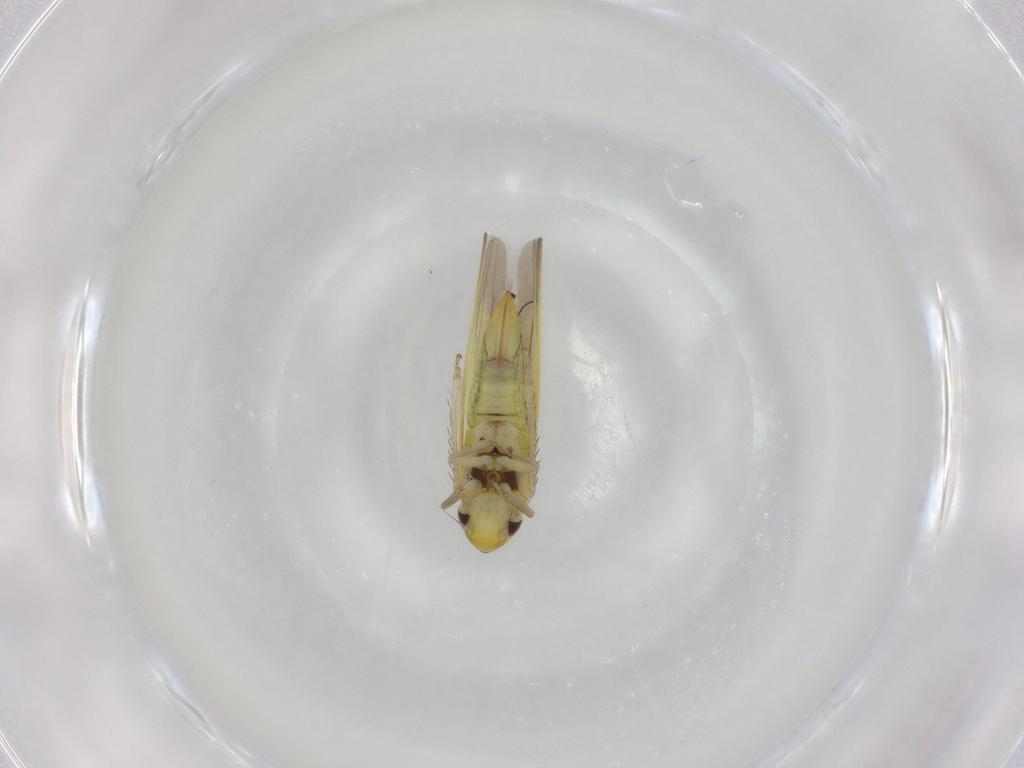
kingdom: Animalia
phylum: Arthropoda
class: Insecta
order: Hemiptera
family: Cicadellidae
